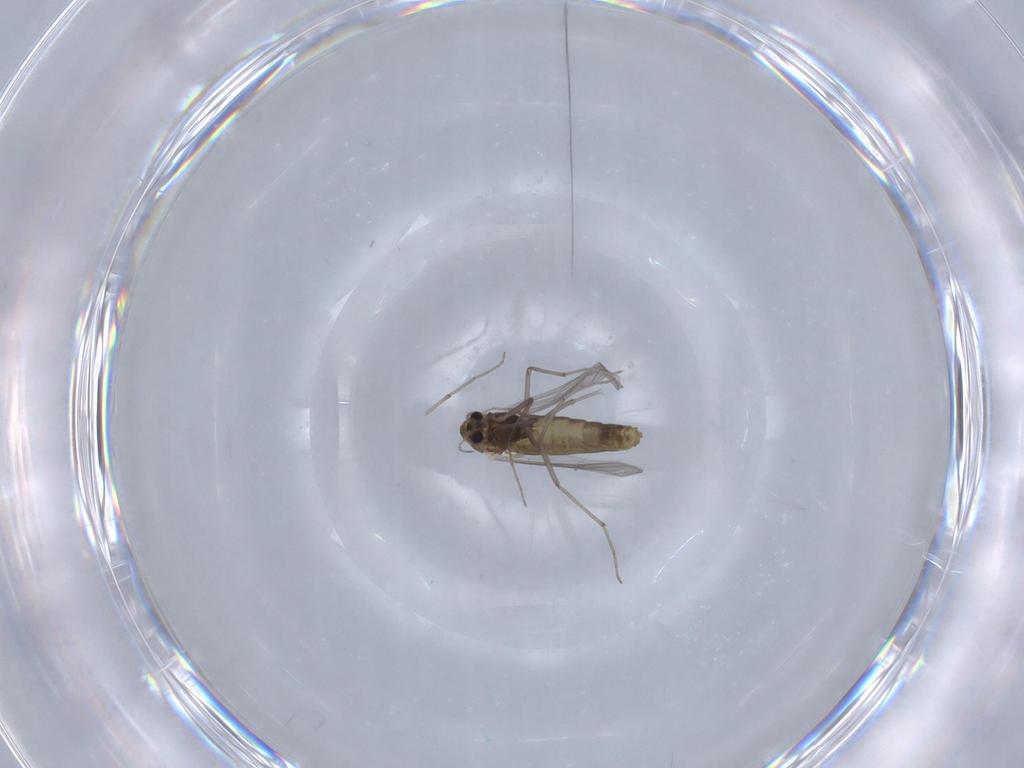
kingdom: Animalia
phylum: Arthropoda
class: Insecta
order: Diptera
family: Chironomidae
